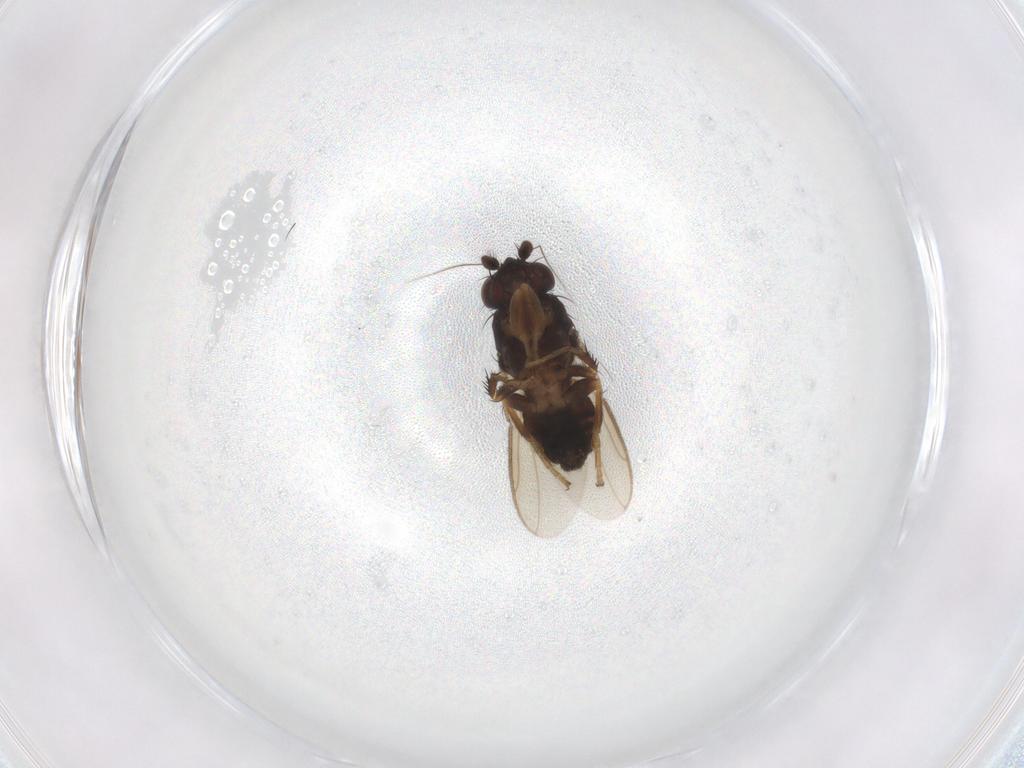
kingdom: Animalia
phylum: Arthropoda
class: Insecta
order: Diptera
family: Sphaeroceridae
